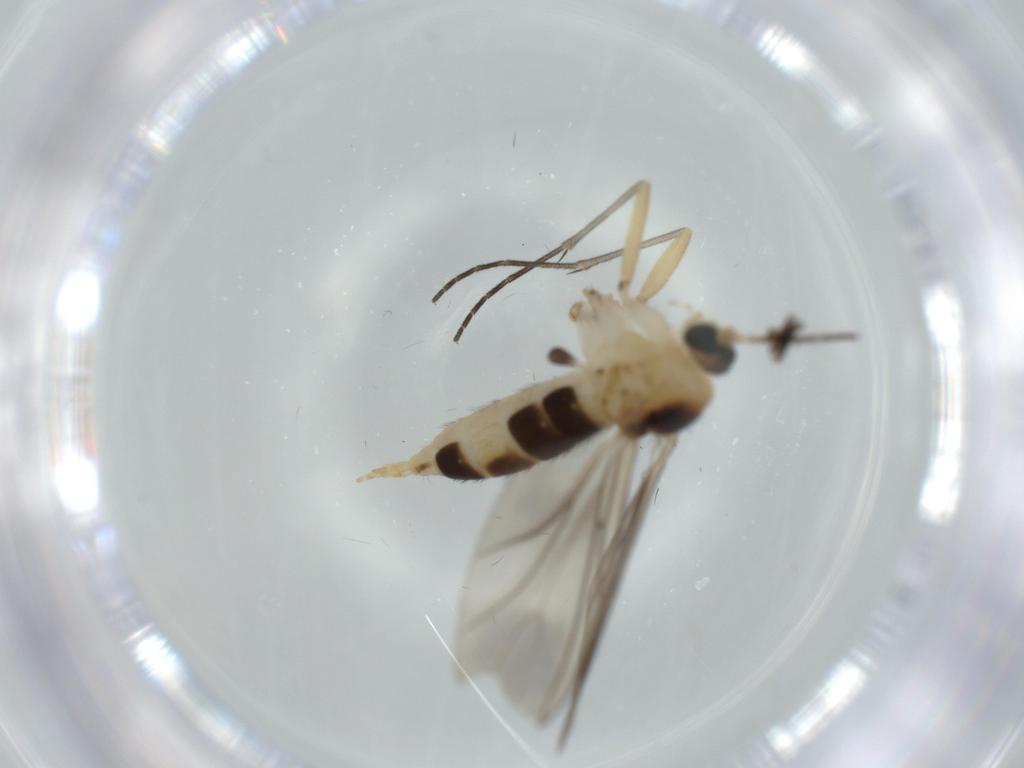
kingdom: Animalia
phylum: Arthropoda
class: Insecta
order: Diptera
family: Sciaridae
